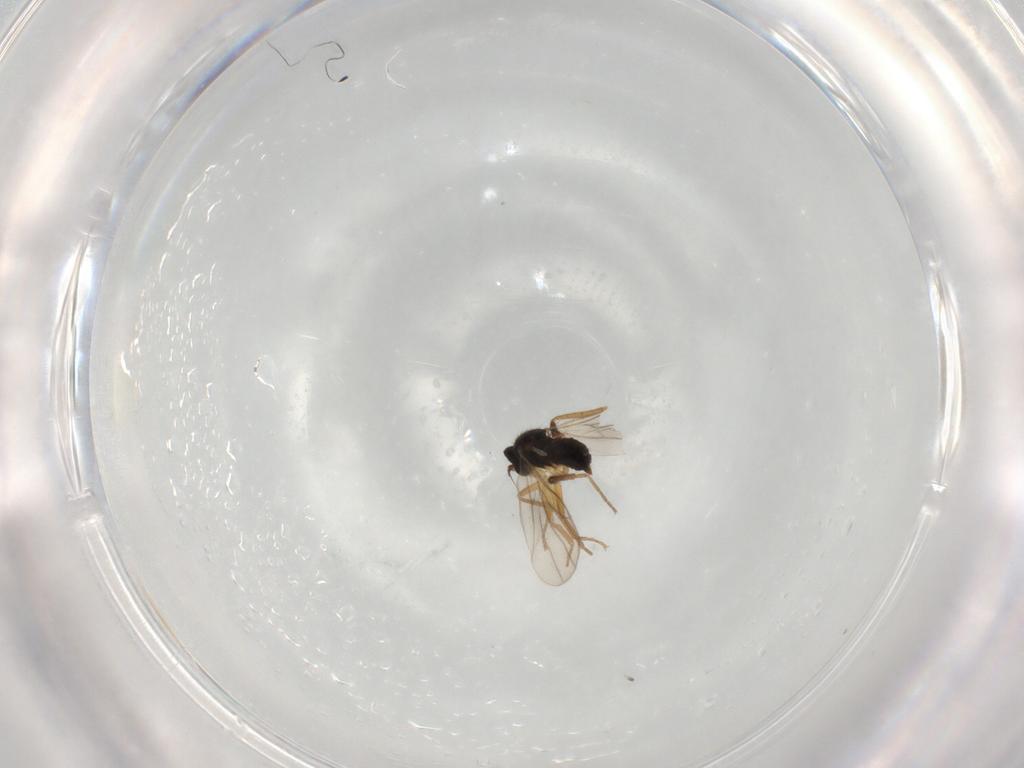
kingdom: Animalia
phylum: Arthropoda
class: Insecta
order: Diptera
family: Hybotidae
